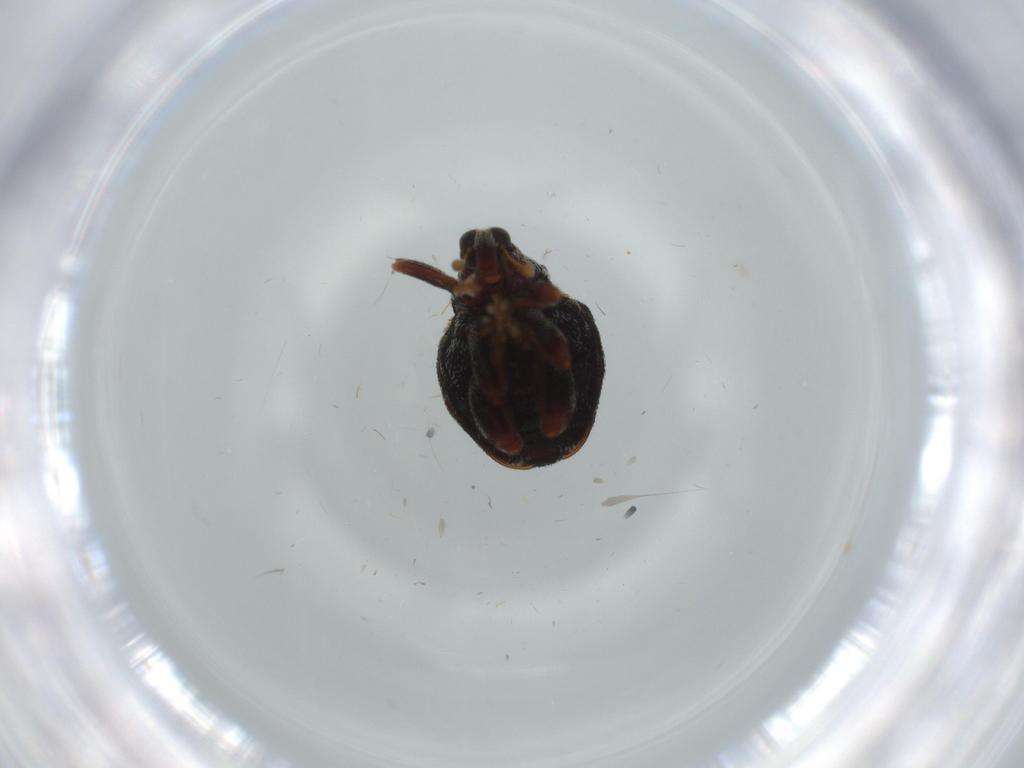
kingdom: Animalia
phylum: Arthropoda
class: Insecta
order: Coleoptera
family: Curculionidae
